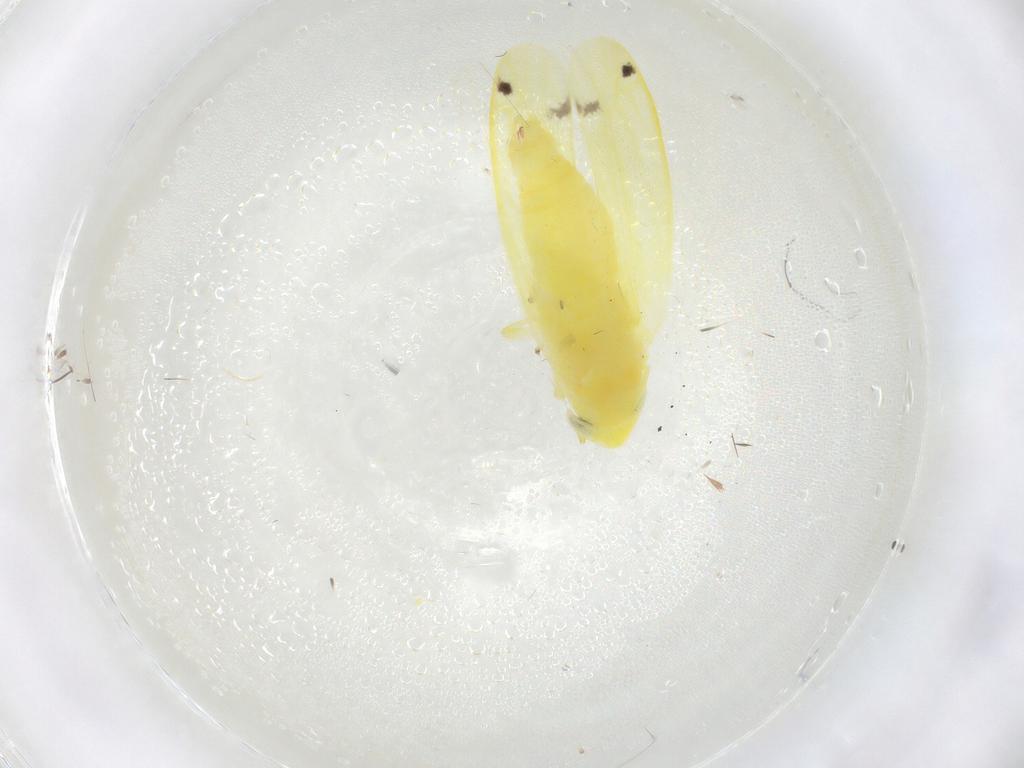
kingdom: Animalia
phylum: Arthropoda
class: Insecta
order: Hemiptera
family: Cicadellidae
